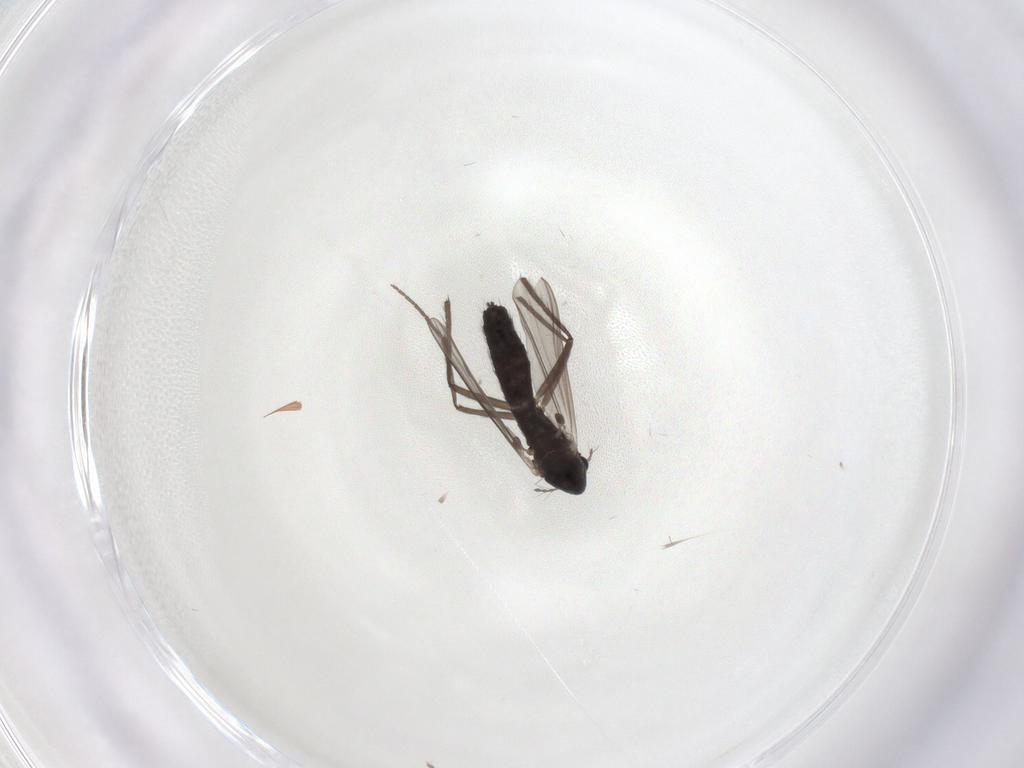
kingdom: Animalia
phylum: Arthropoda
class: Insecta
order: Diptera
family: Chironomidae
